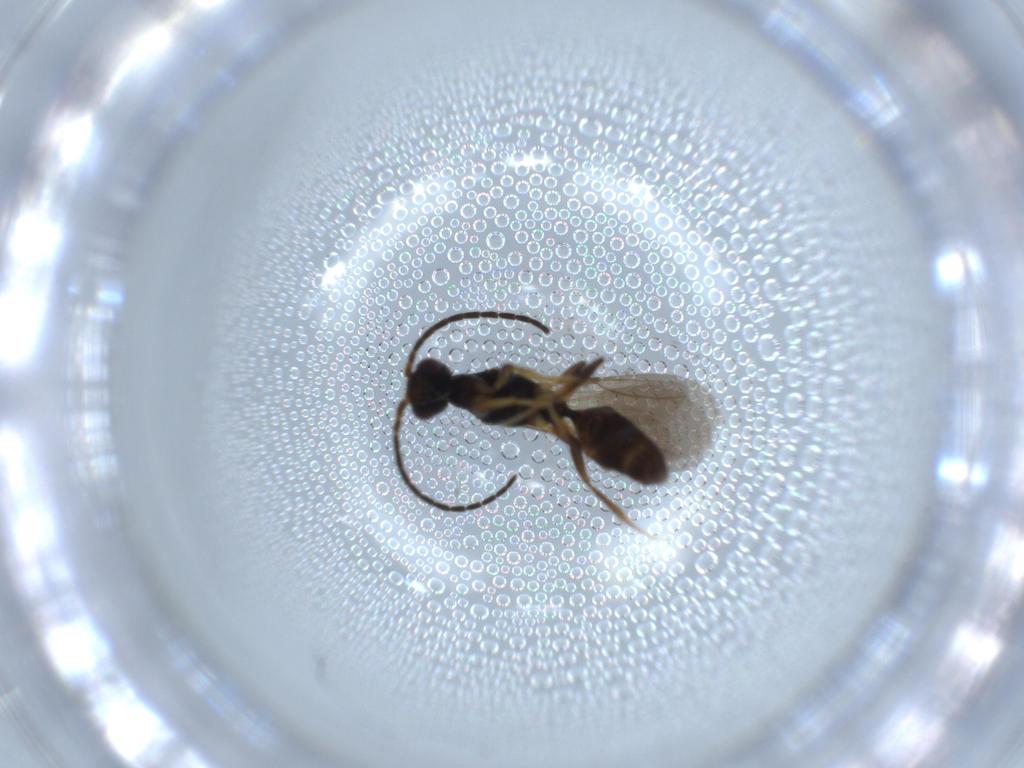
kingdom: Animalia
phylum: Arthropoda
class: Insecta
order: Hymenoptera
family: Bethylidae
